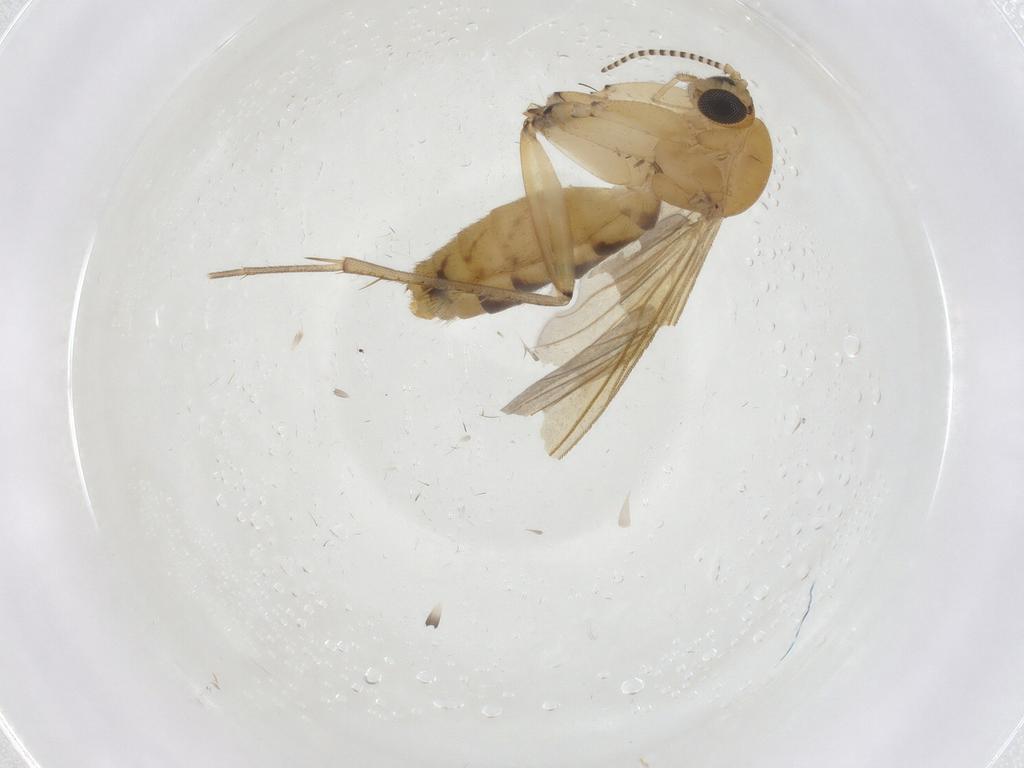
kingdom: Animalia
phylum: Arthropoda
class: Insecta
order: Diptera
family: Mycetophilidae
